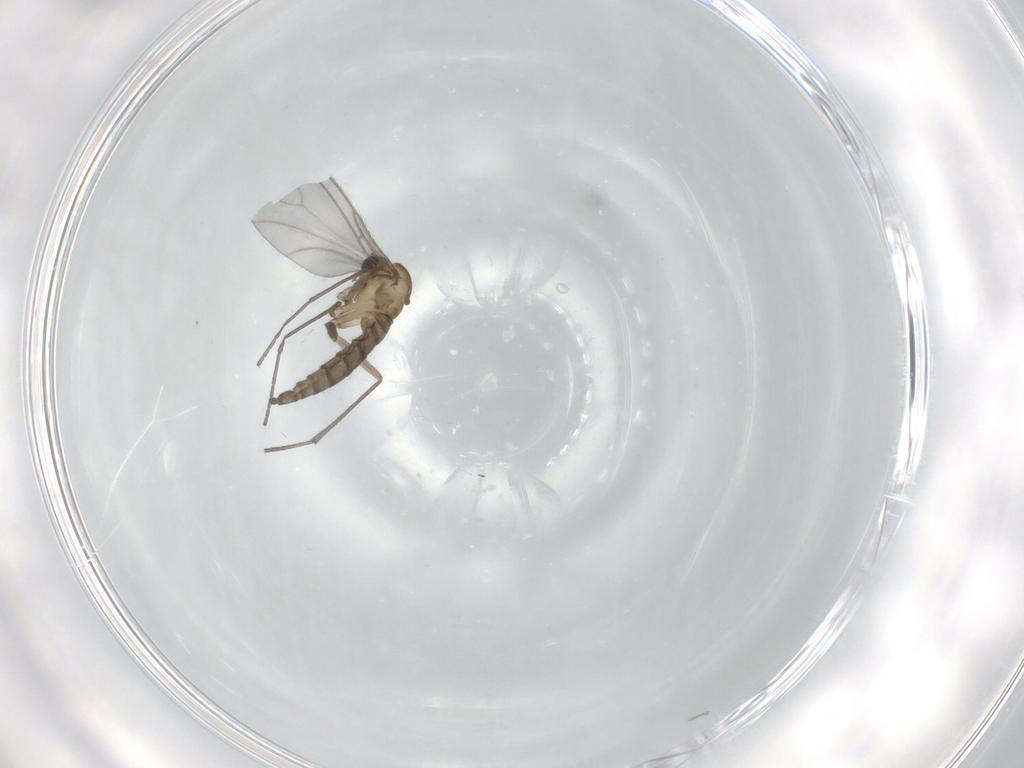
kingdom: Animalia
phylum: Arthropoda
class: Insecta
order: Diptera
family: Sciaridae
